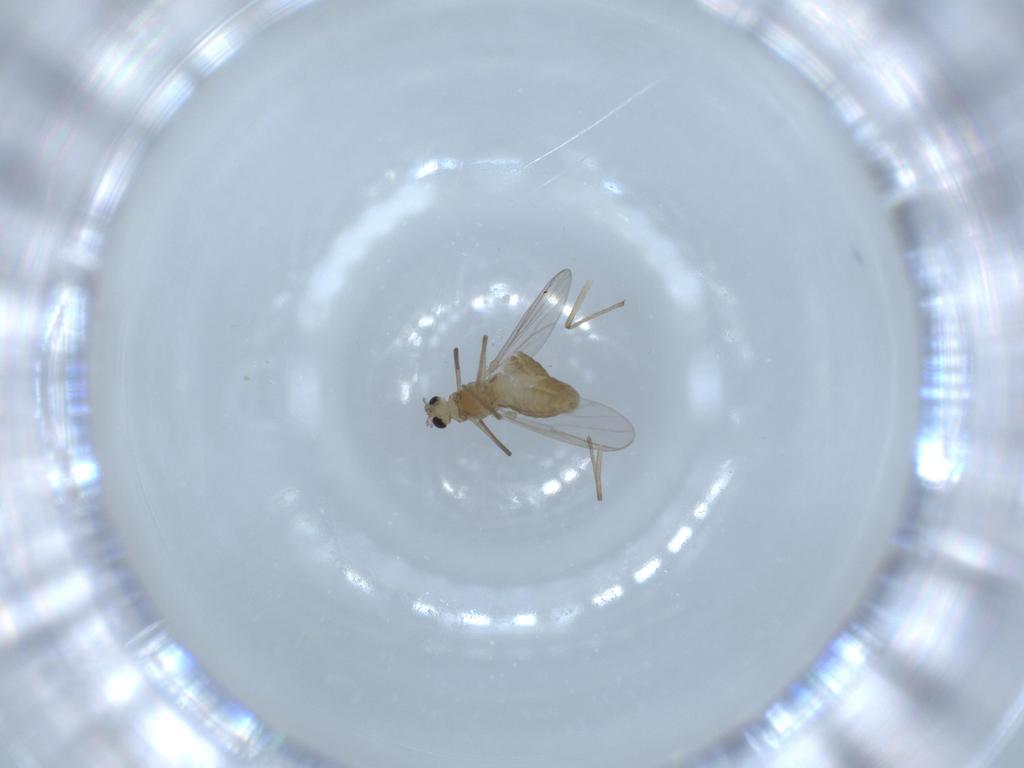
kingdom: Animalia
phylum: Arthropoda
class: Insecta
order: Diptera
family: Chironomidae
